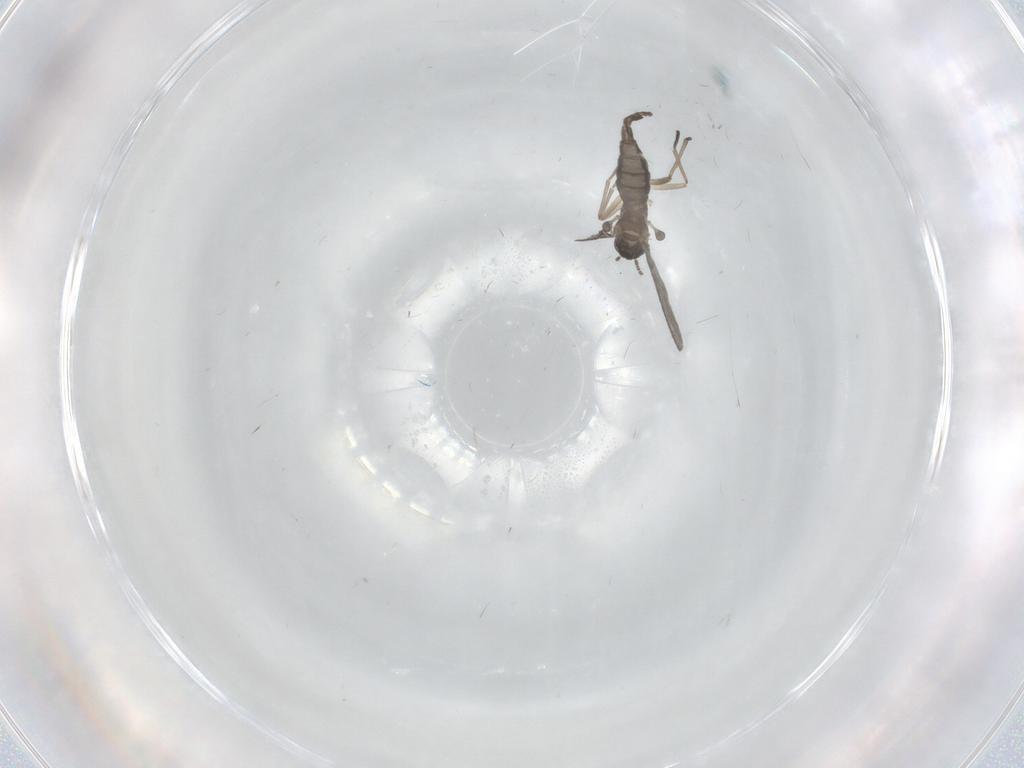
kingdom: Animalia
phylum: Arthropoda
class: Insecta
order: Diptera
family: Sciaridae
